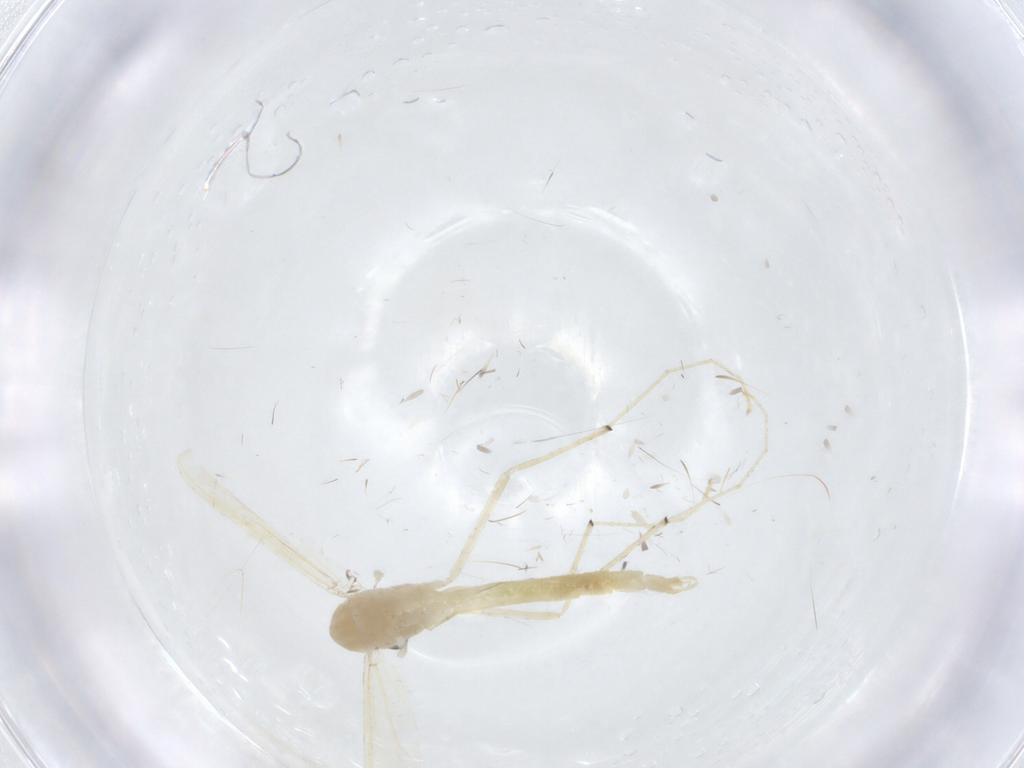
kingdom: Animalia
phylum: Arthropoda
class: Insecta
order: Diptera
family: Chironomidae
